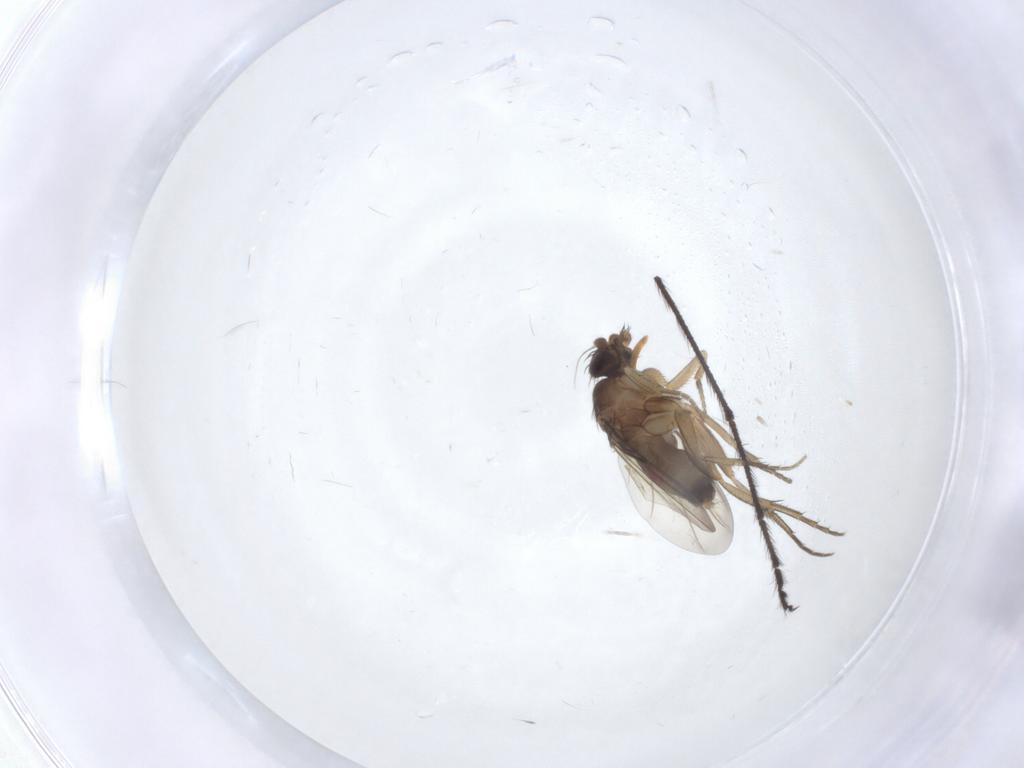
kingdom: Animalia
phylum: Arthropoda
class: Insecta
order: Diptera
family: Phoridae
